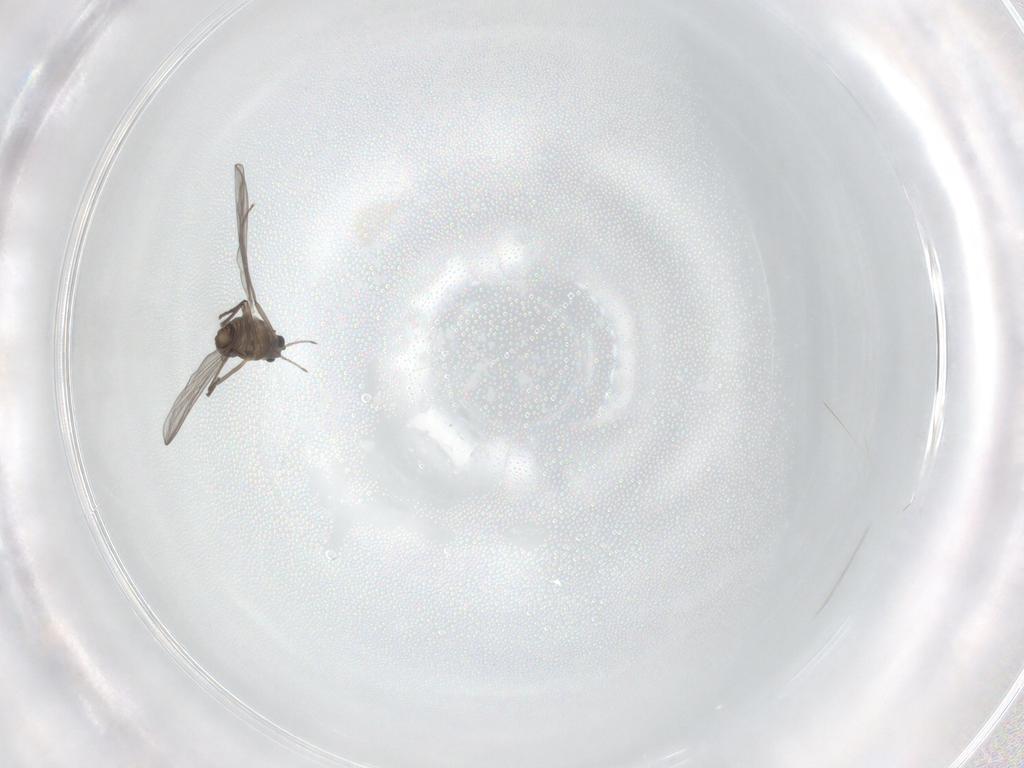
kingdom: Animalia
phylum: Arthropoda
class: Insecta
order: Diptera
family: Chironomidae
